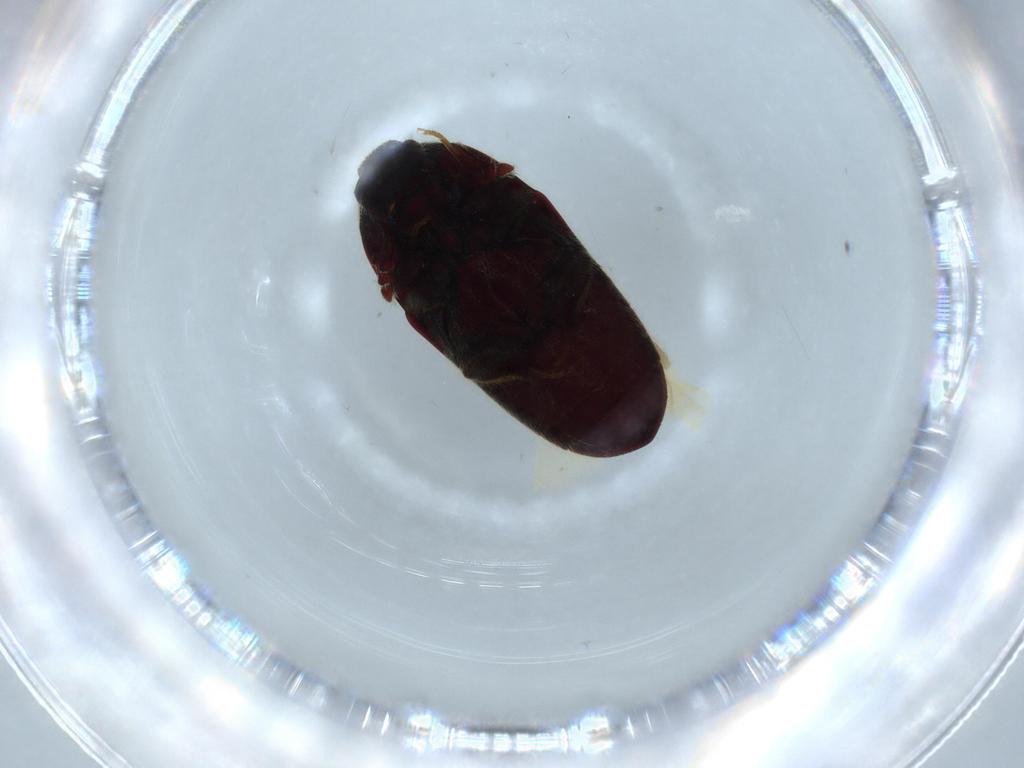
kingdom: Animalia
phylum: Arthropoda
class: Insecta
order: Coleoptera
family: Throscidae
